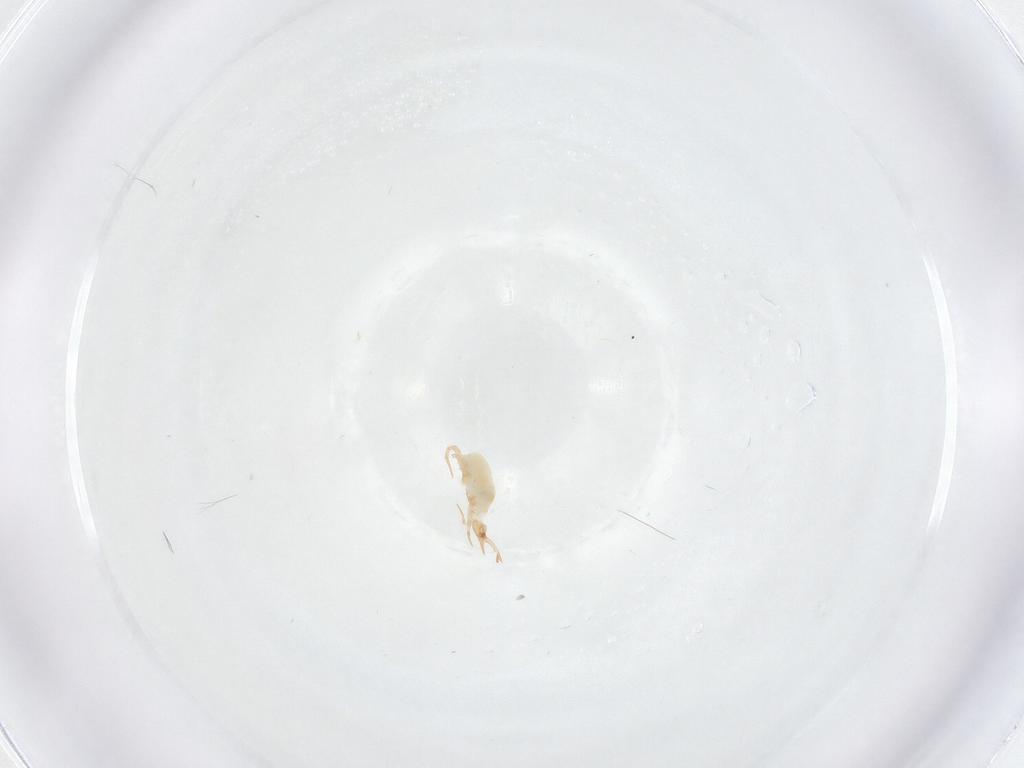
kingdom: Animalia
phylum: Arthropoda
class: Arachnida
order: Trombidiformes
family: Eupodidae
